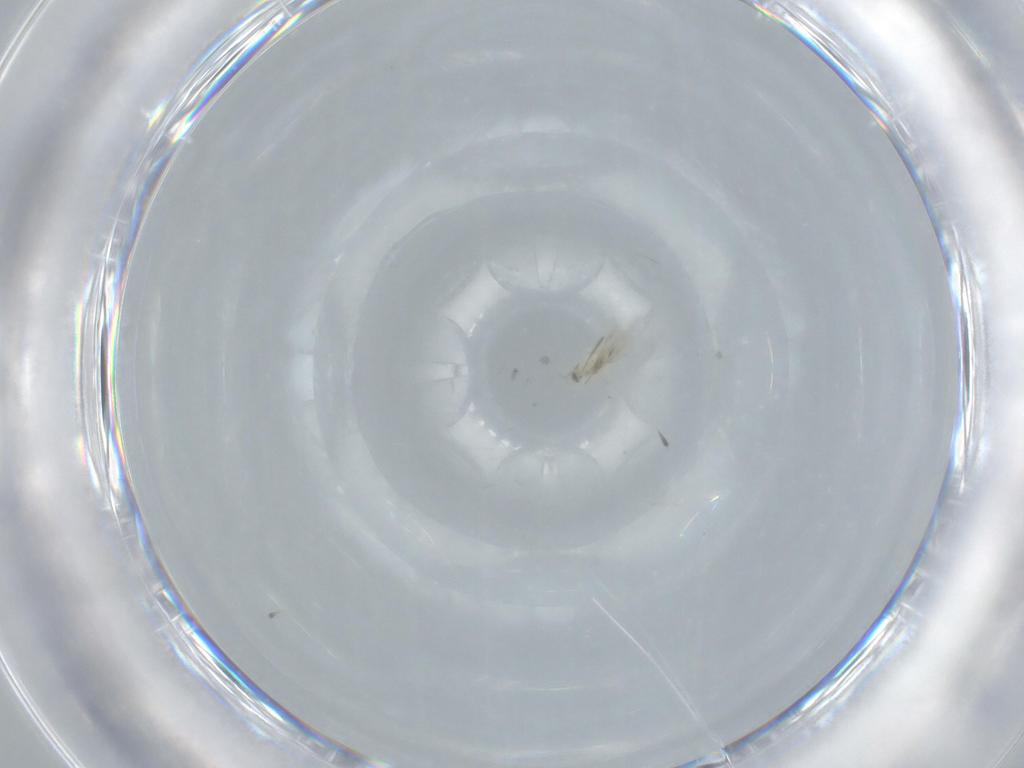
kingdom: Animalia
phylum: Arthropoda
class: Insecta
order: Hymenoptera
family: Aphelinidae
